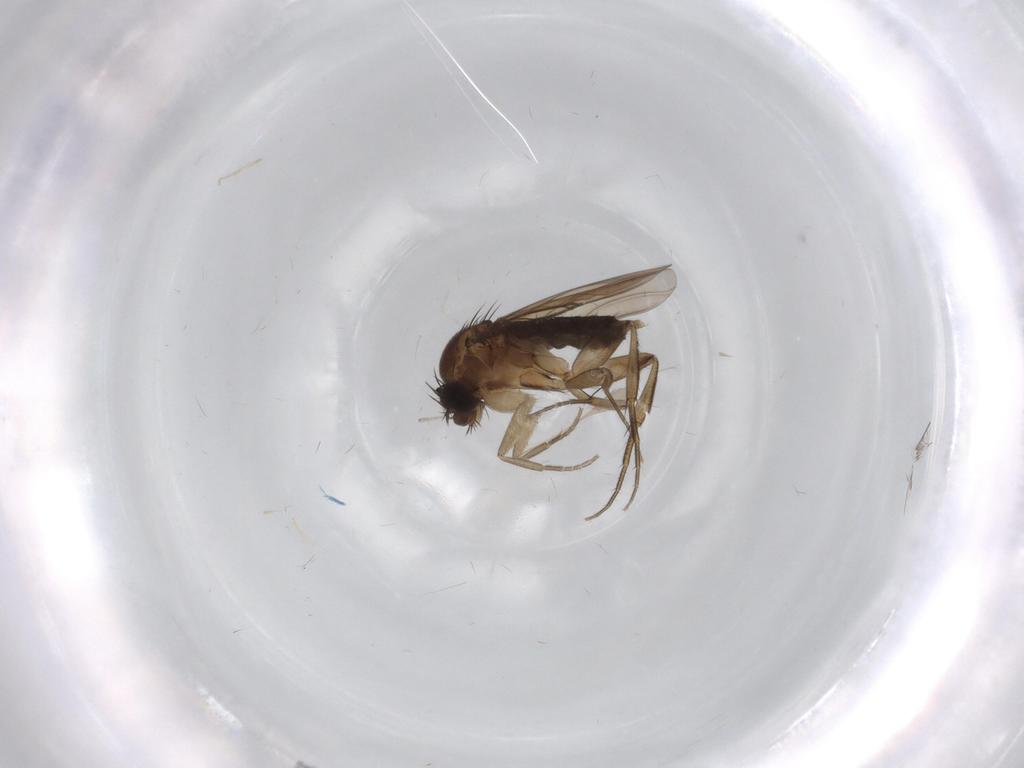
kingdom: Animalia
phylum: Arthropoda
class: Insecta
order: Diptera
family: Phoridae
